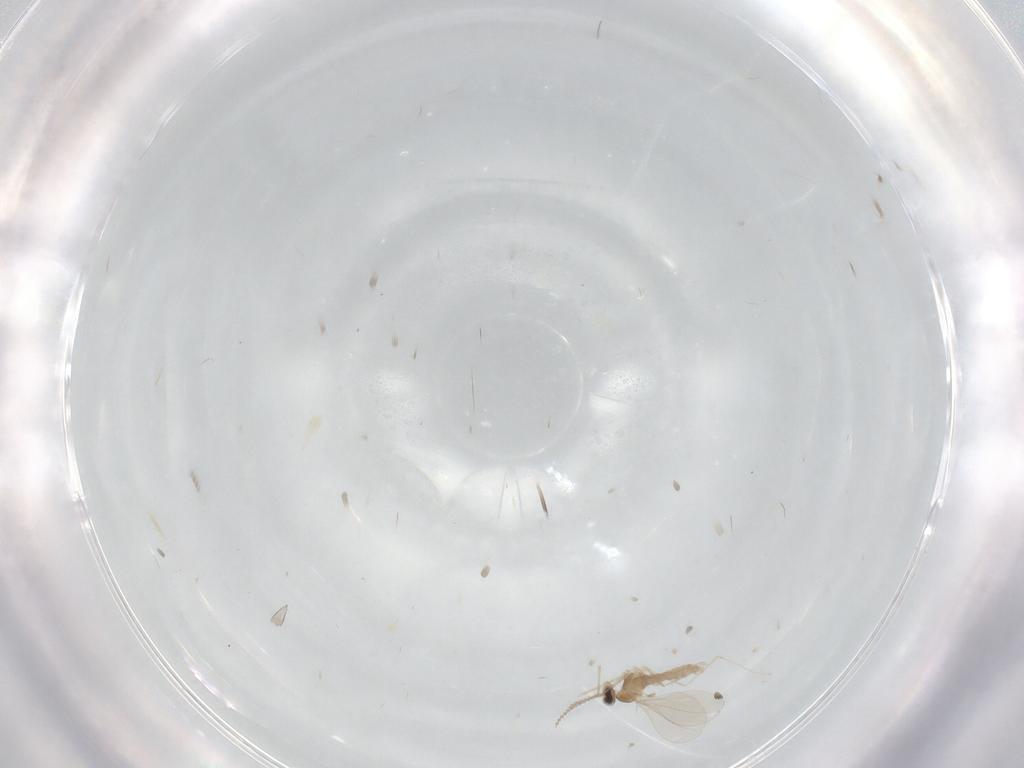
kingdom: Animalia
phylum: Arthropoda
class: Insecta
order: Diptera
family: Cecidomyiidae
